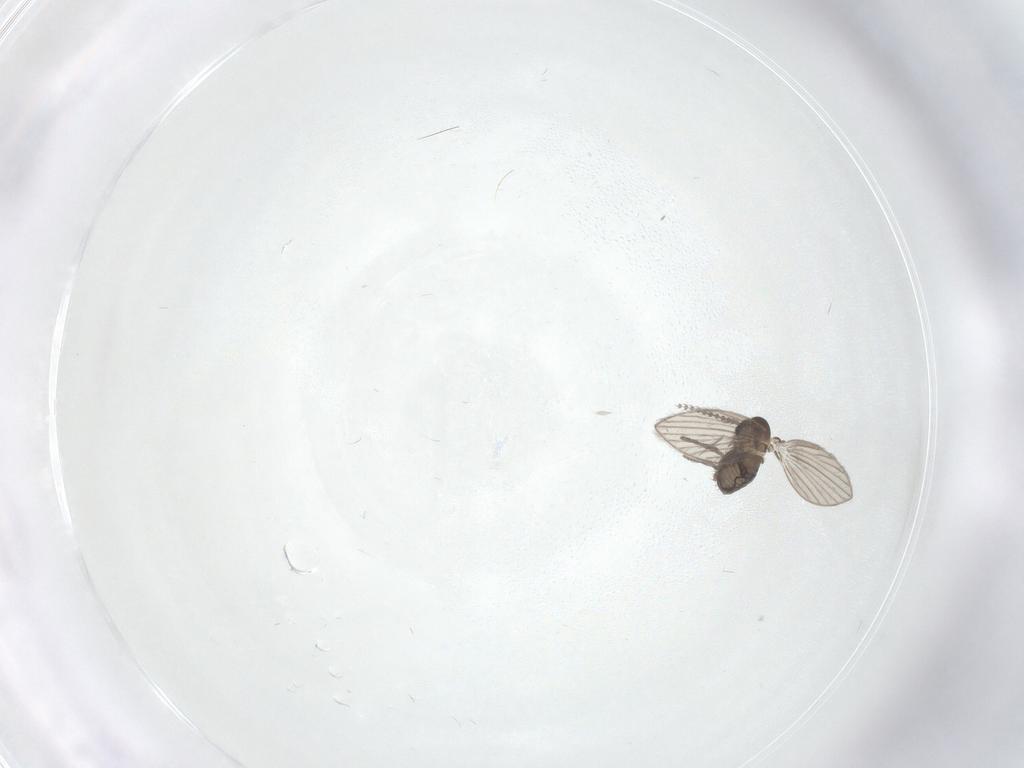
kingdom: Animalia
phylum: Arthropoda
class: Insecta
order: Diptera
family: Psychodidae
